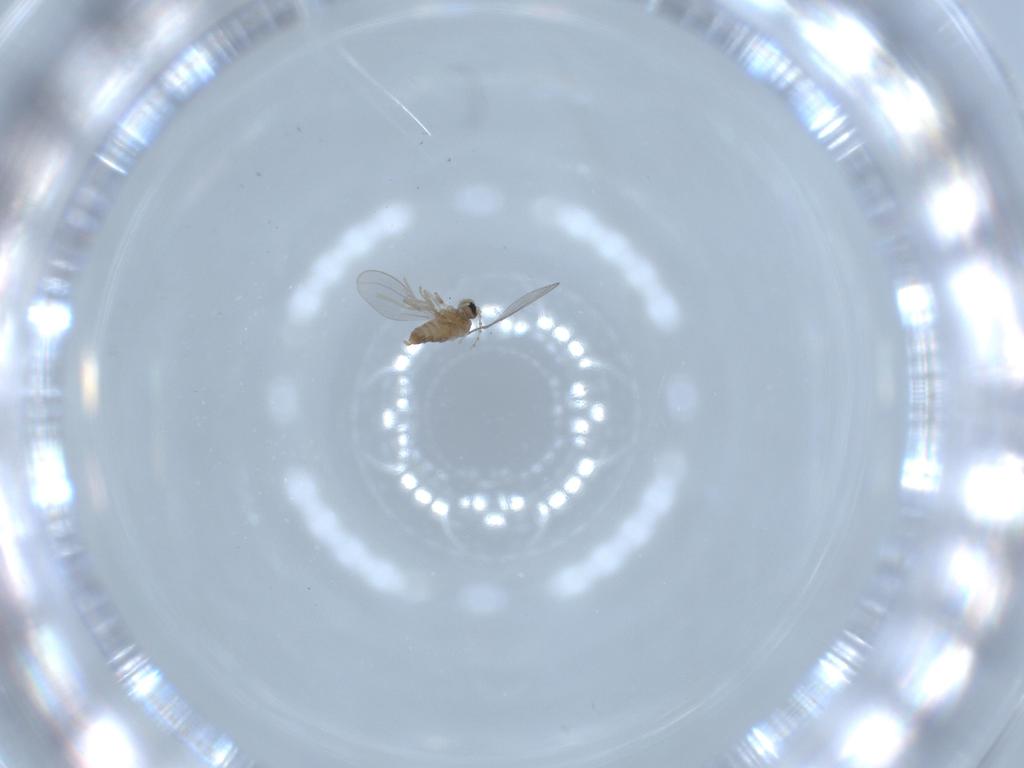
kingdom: Animalia
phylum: Arthropoda
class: Insecta
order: Diptera
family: Cecidomyiidae
